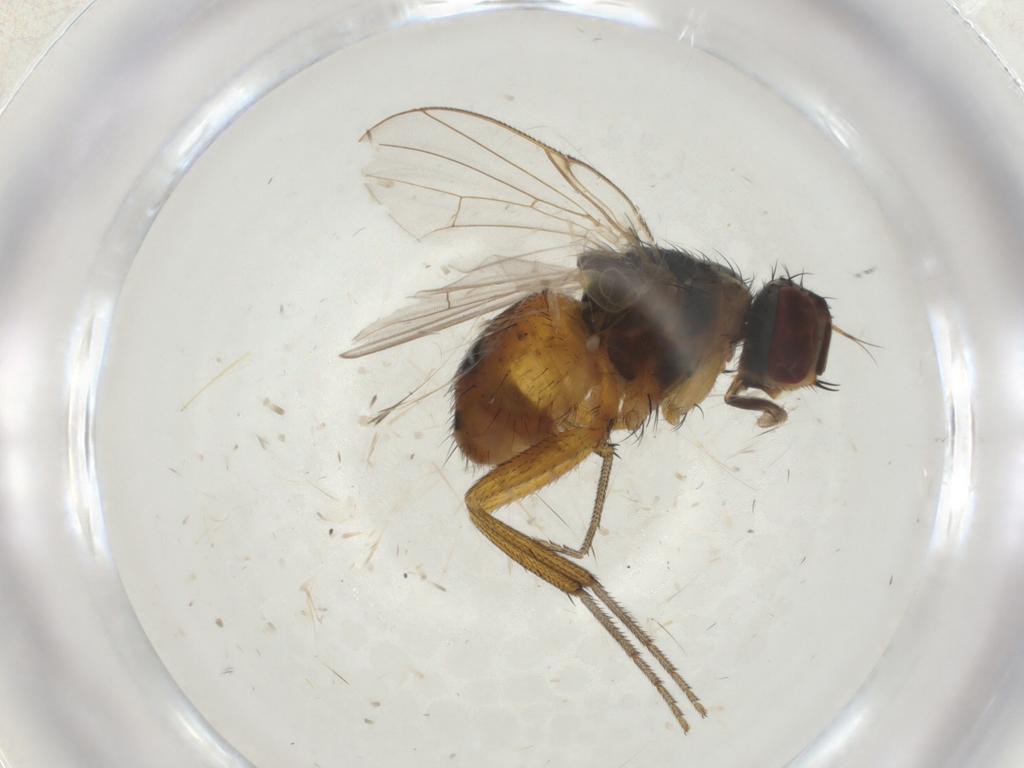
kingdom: Animalia
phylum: Arthropoda
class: Insecta
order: Diptera
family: Muscidae
